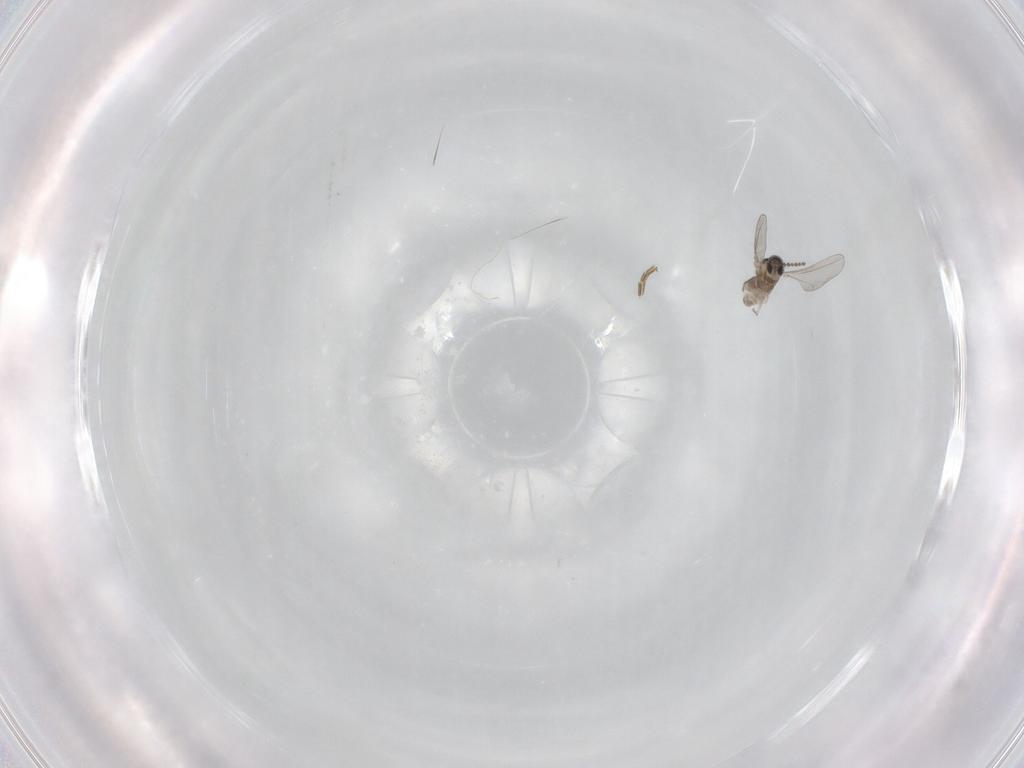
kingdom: Animalia
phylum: Arthropoda
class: Insecta
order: Diptera
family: Cecidomyiidae
